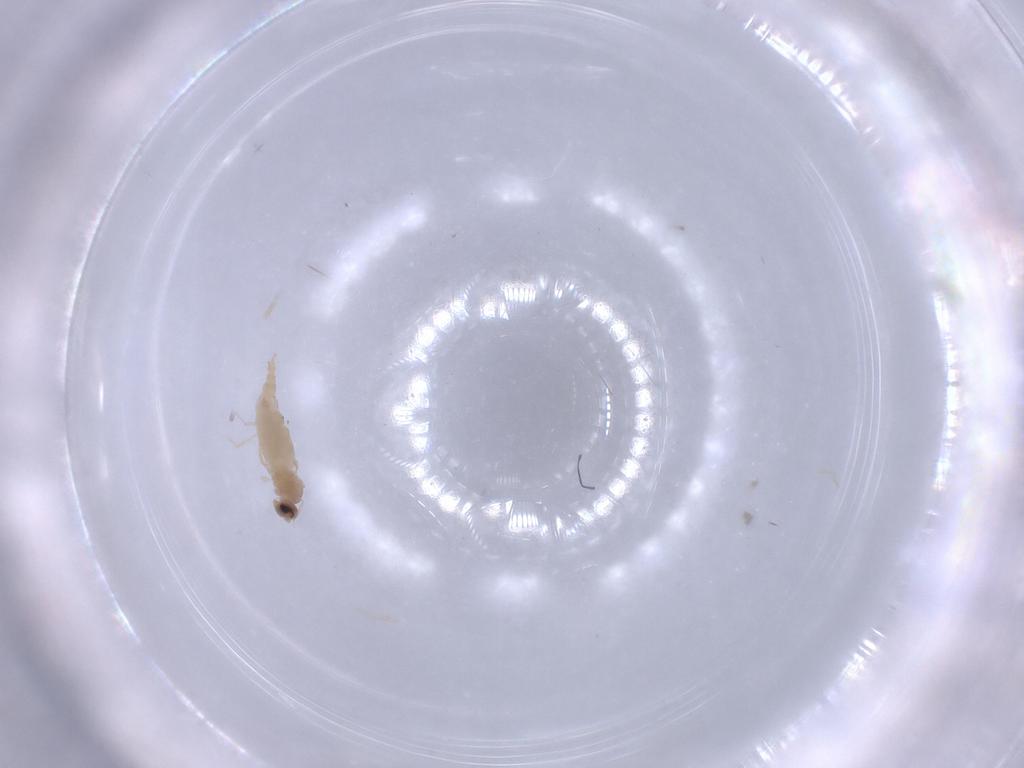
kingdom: Animalia
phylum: Arthropoda
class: Insecta
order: Diptera
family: Cecidomyiidae
